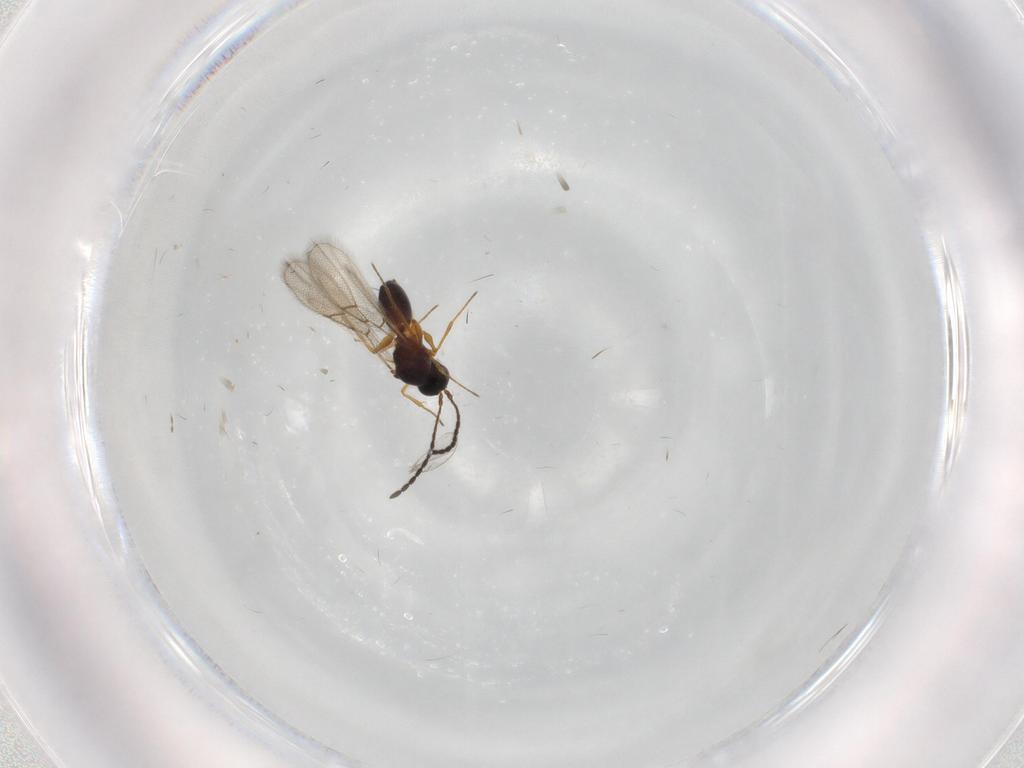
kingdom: Animalia
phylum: Arthropoda
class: Insecta
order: Hymenoptera
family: Figitidae
